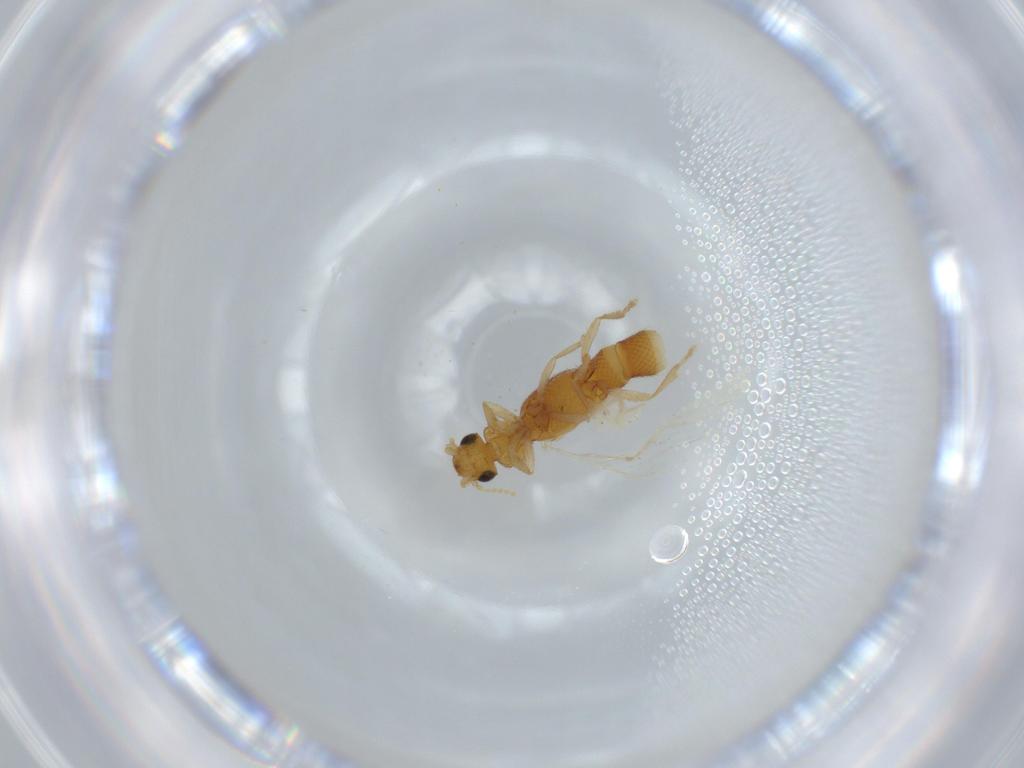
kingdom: Animalia
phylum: Arthropoda
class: Insecta
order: Coleoptera
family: Staphylinidae
